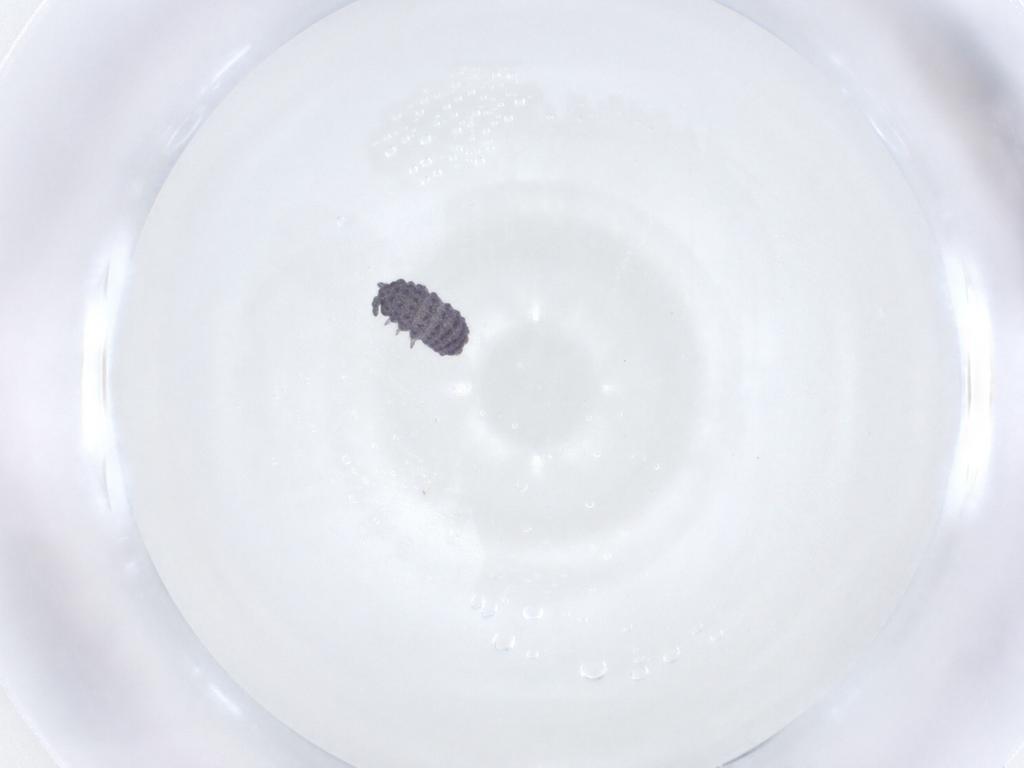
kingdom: Animalia
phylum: Arthropoda
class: Collembola
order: Poduromorpha
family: Neanuridae
